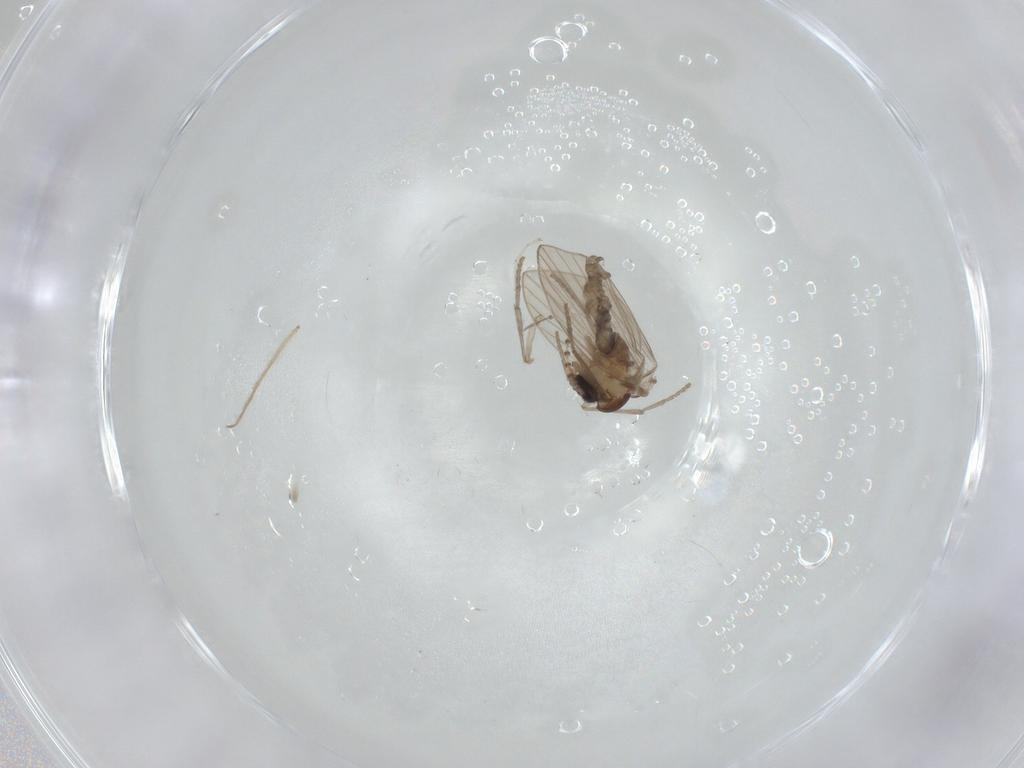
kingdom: Animalia
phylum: Arthropoda
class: Insecta
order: Diptera
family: Psychodidae
